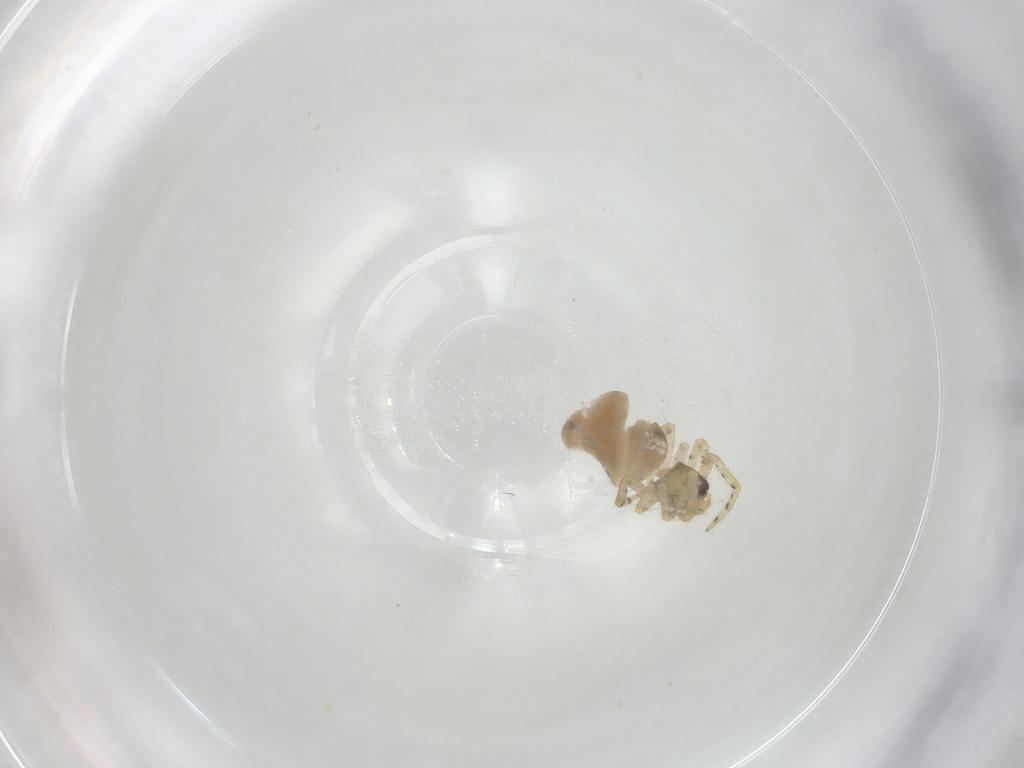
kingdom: Animalia
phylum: Arthropoda
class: Arachnida
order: Araneae
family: Theridiidae
